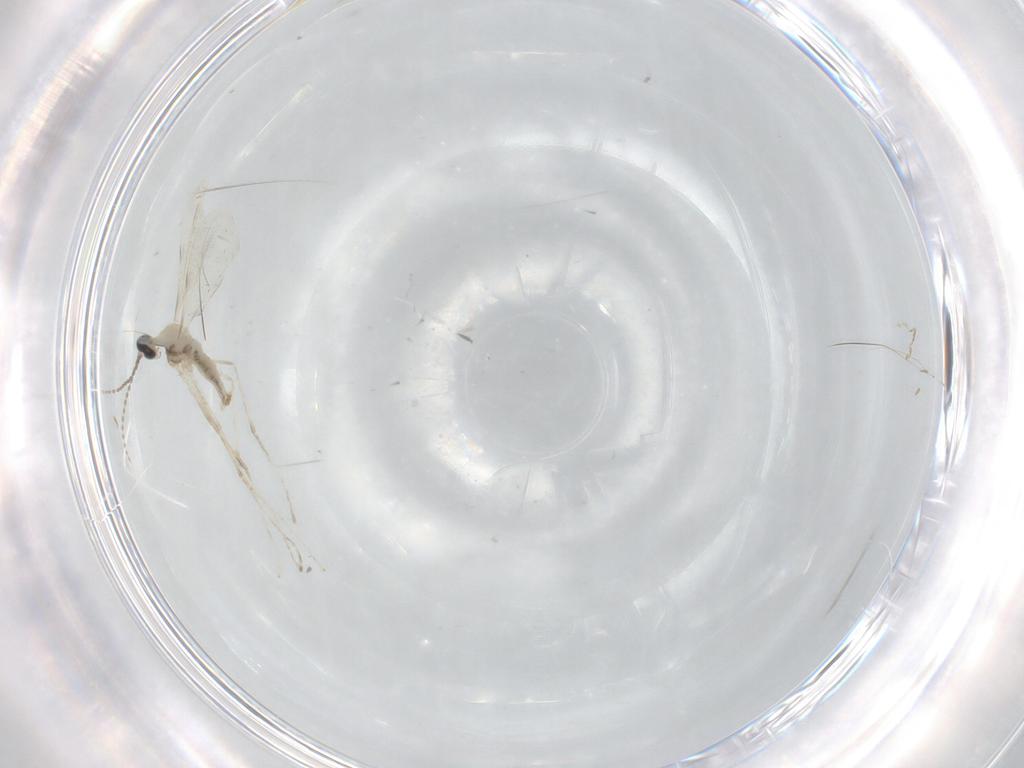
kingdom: Animalia
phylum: Arthropoda
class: Insecta
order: Diptera
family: Cecidomyiidae
